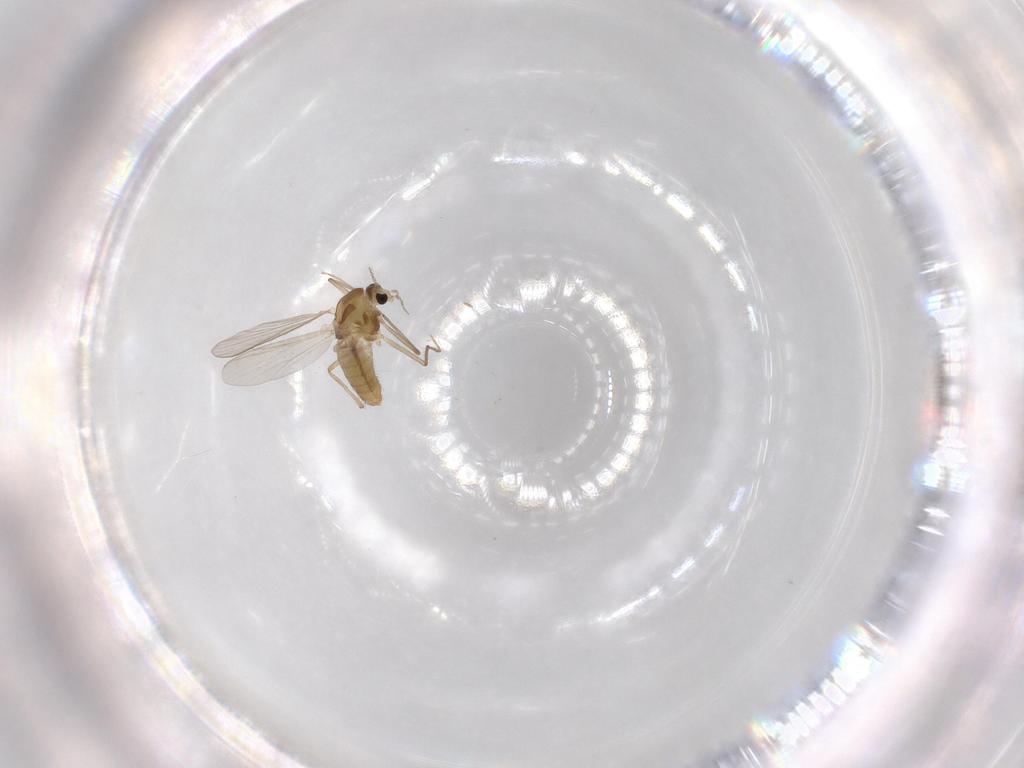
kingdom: Animalia
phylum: Arthropoda
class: Insecta
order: Diptera
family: Chironomidae
